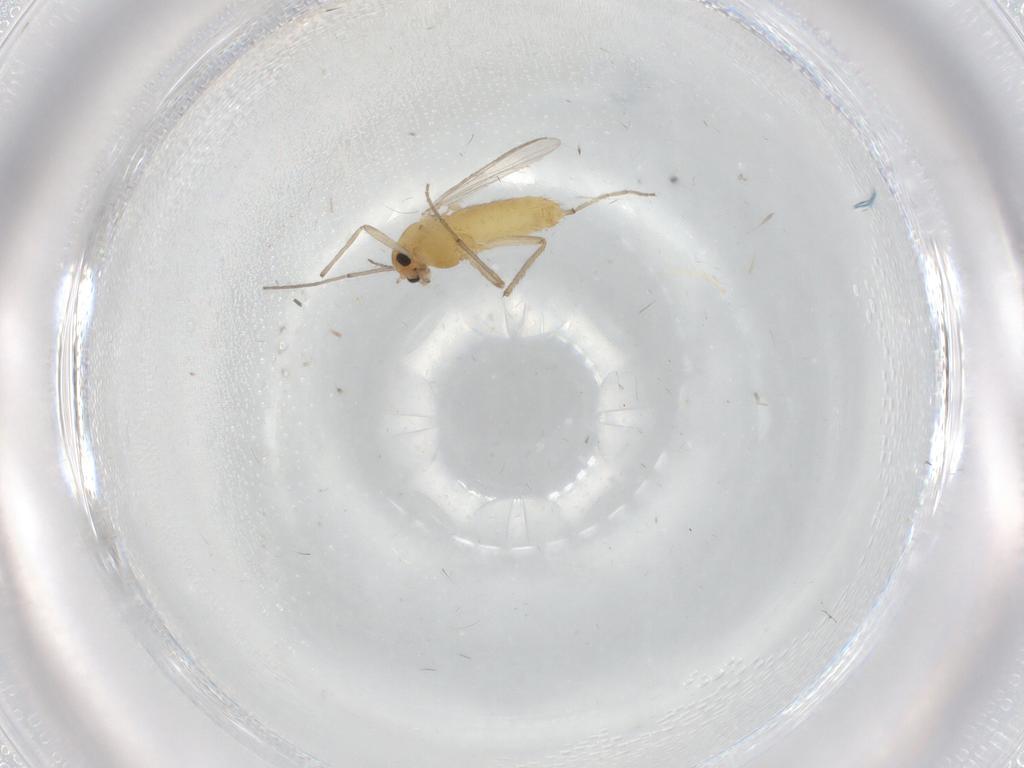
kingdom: Animalia
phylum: Arthropoda
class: Insecta
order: Diptera
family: Chironomidae
